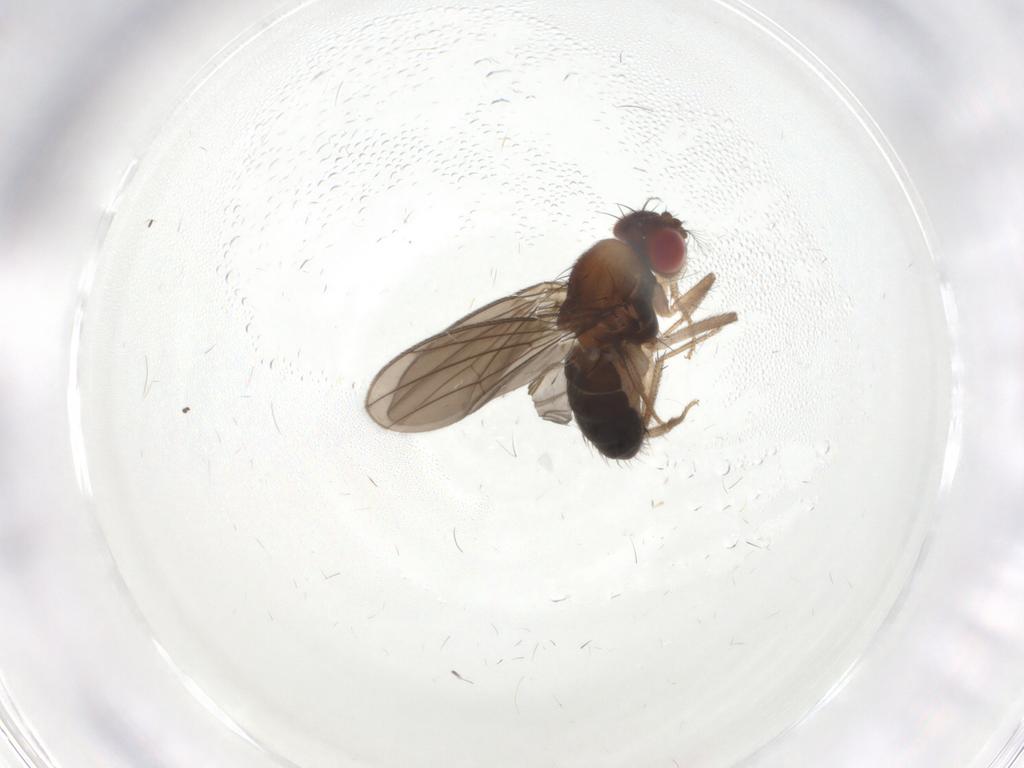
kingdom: Animalia
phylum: Arthropoda
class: Insecta
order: Diptera
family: Drosophilidae
